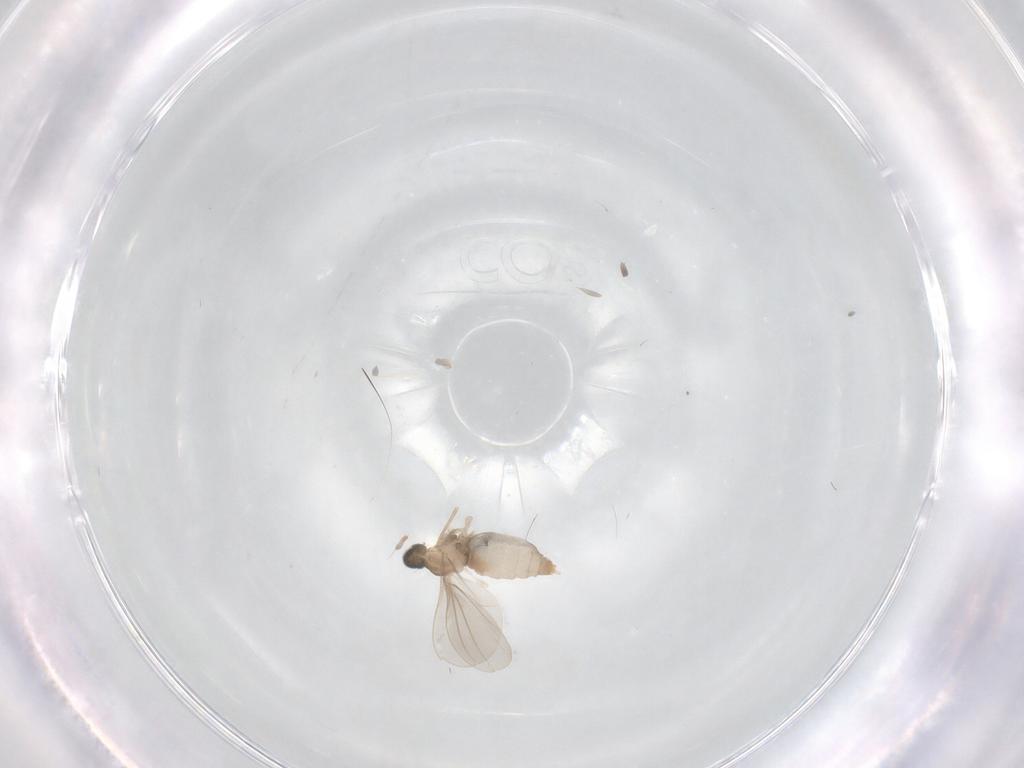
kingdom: Animalia
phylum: Arthropoda
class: Insecta
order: Diptera
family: Cecidomyiidae
